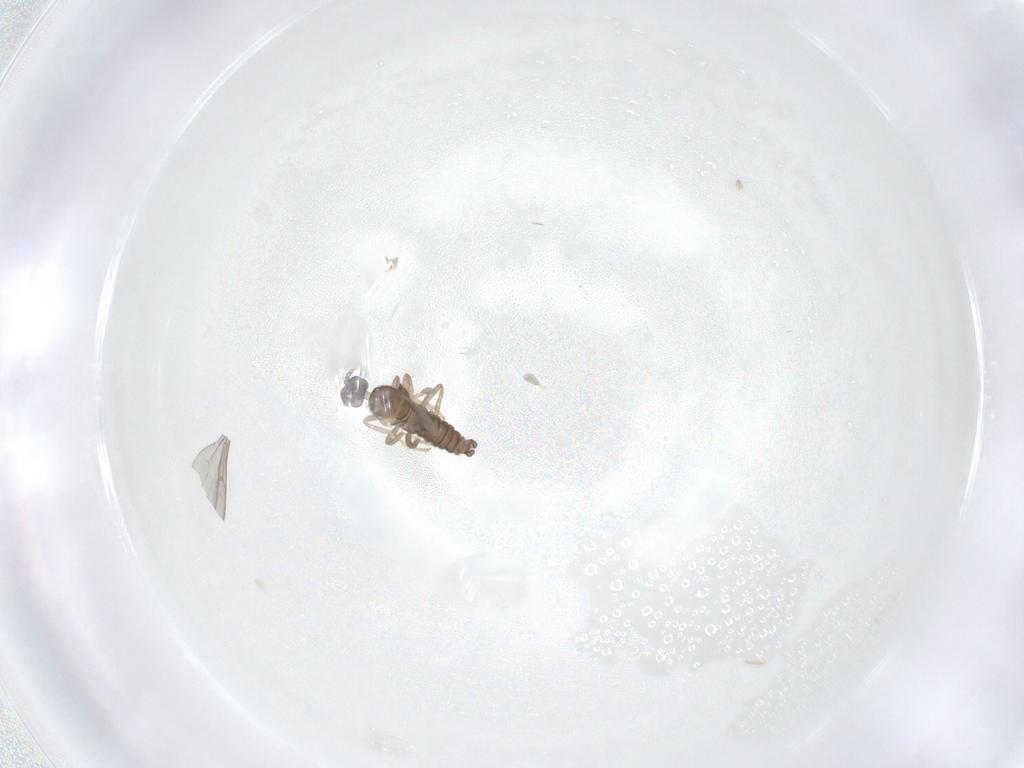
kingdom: Animalia
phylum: Arthropoda
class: Insecta
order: Diptera
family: Cecidomyiidae
